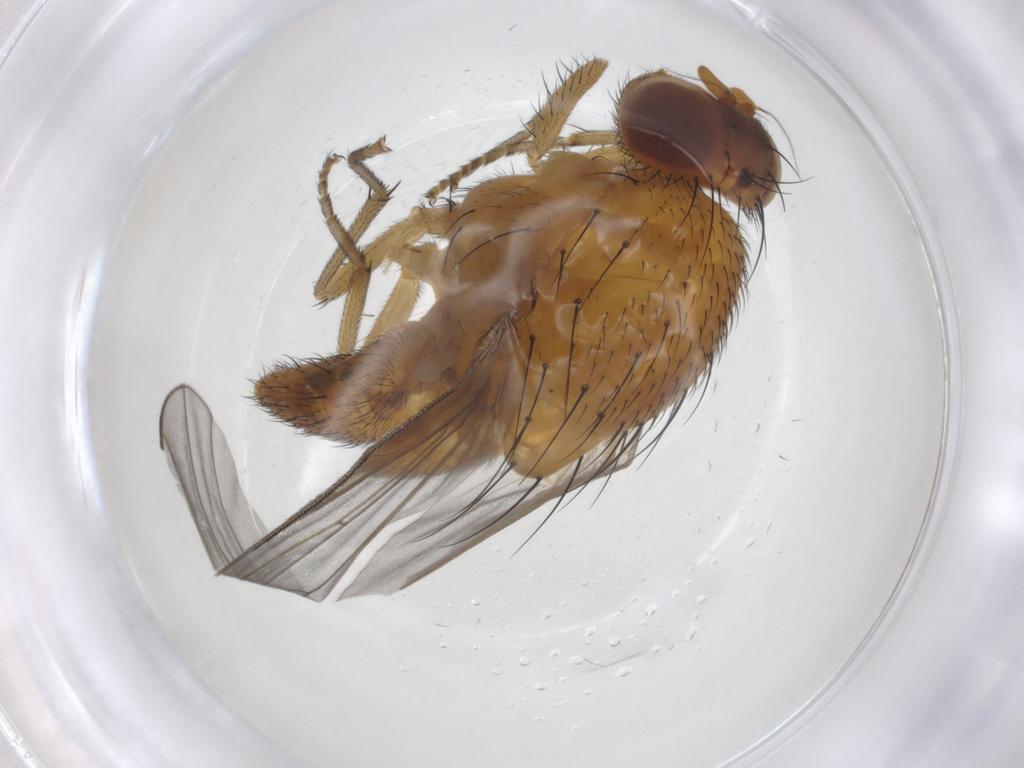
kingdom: Animalia
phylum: Arthropoda
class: Insecta
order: Diptera
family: Lauxaniidae
